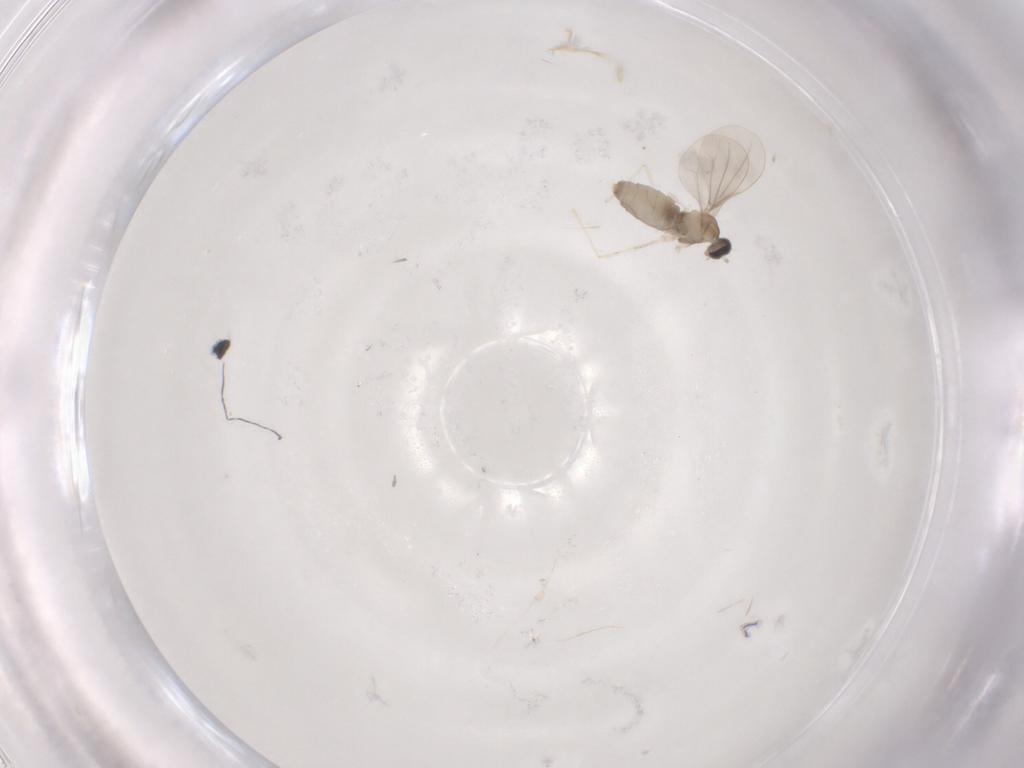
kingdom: Animalia
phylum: Arthropoda
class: Insecta
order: Diptera
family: Cecidomyiidae
